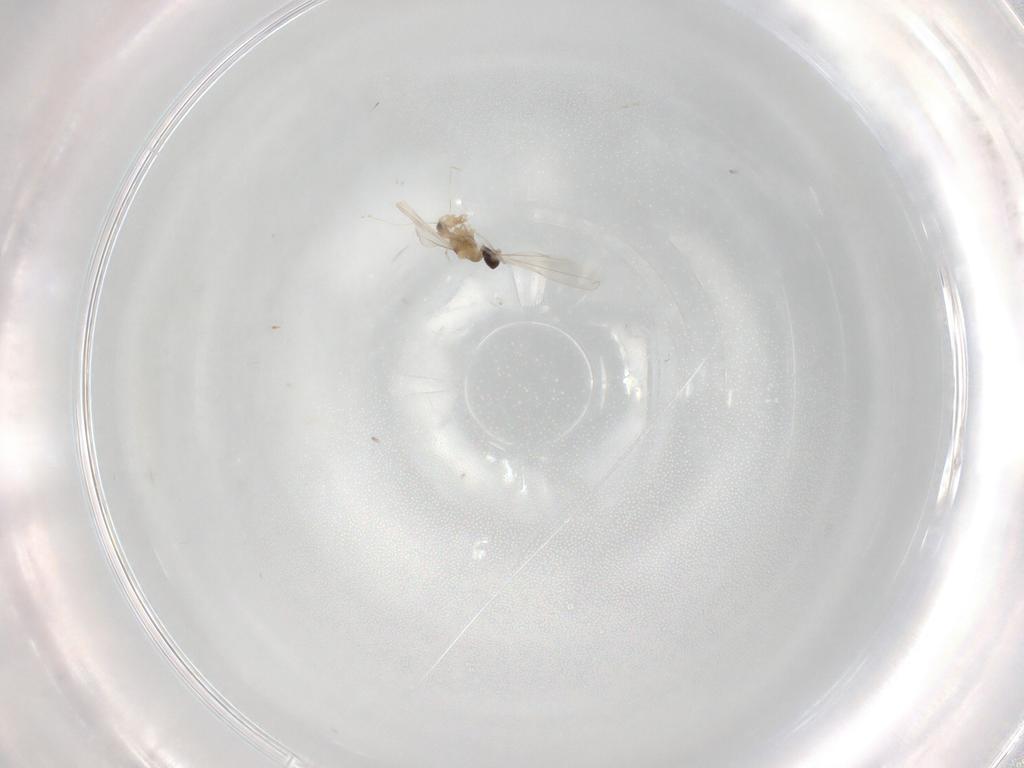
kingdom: Animalia
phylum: Arthropoda
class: Insecta
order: Diptera
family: Cecidomyiidae
